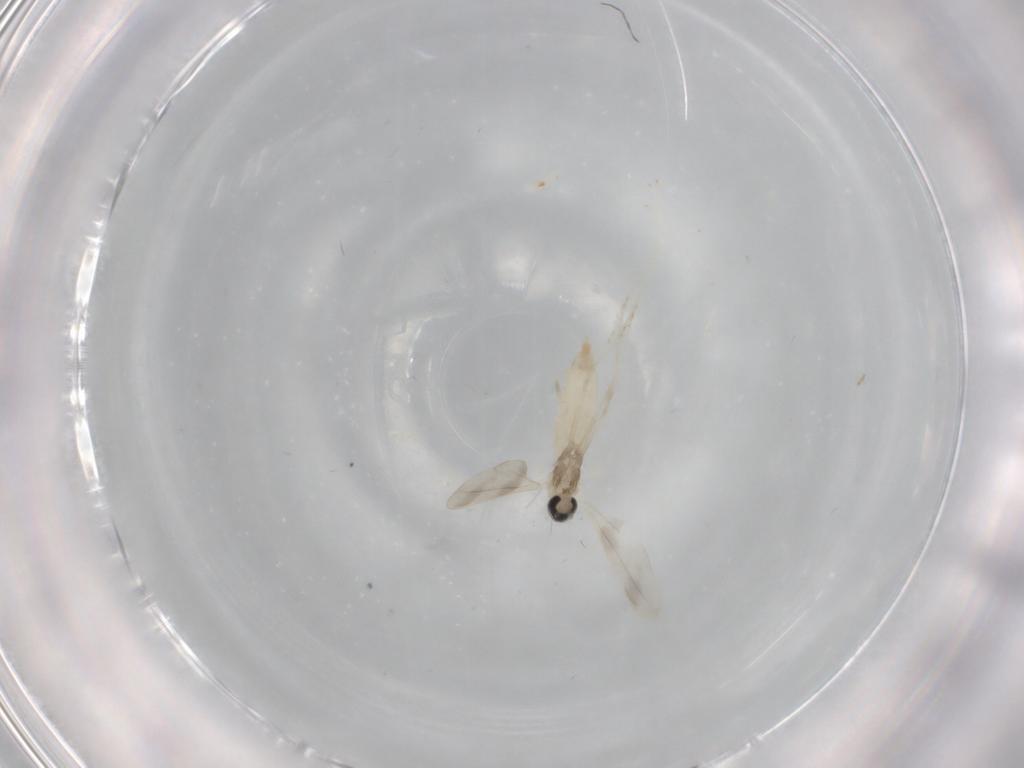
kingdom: Animalia
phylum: Arthropoda
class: Insecta
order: Diptera
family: Cecidomyiidae
